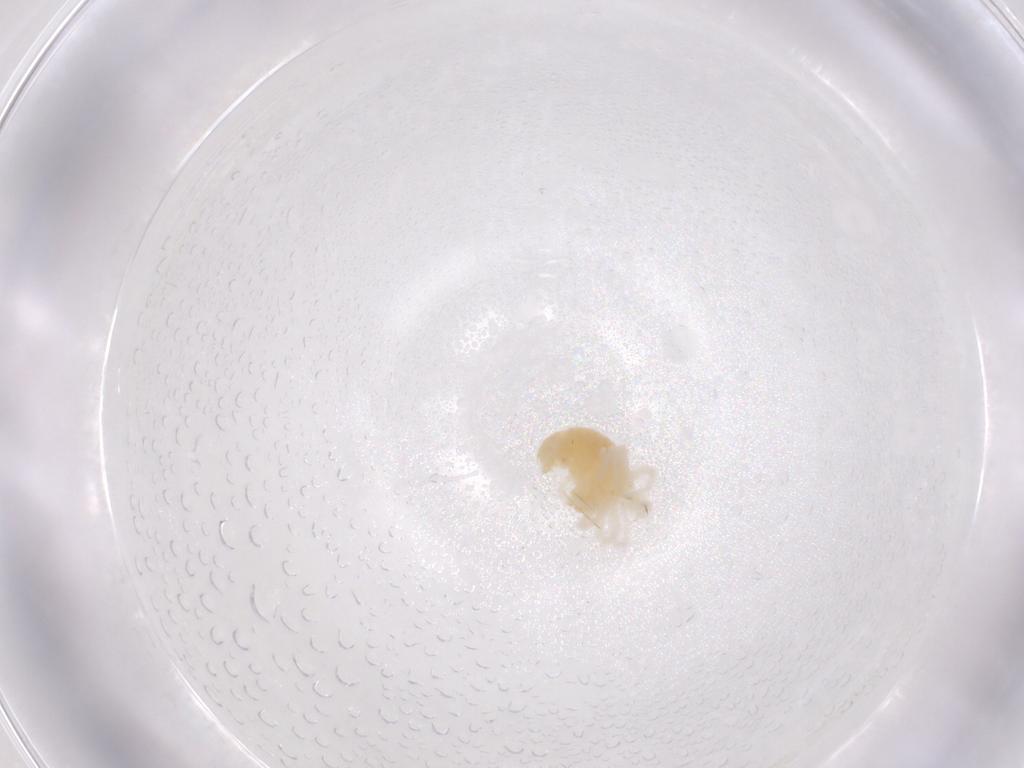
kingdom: Animalia
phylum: Arthropoda
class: Arachnida
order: Trombidiformes
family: Anystidae
